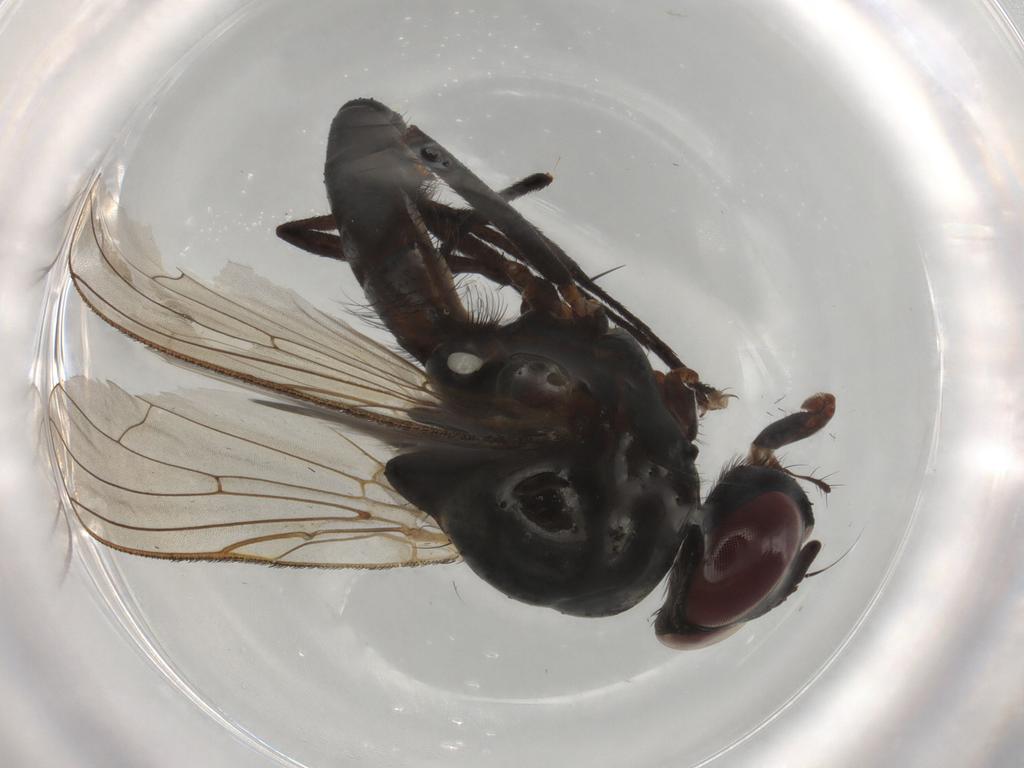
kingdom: Animalia
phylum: Arthropoda
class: Insecta
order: Diptera
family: Anthomyiidae
